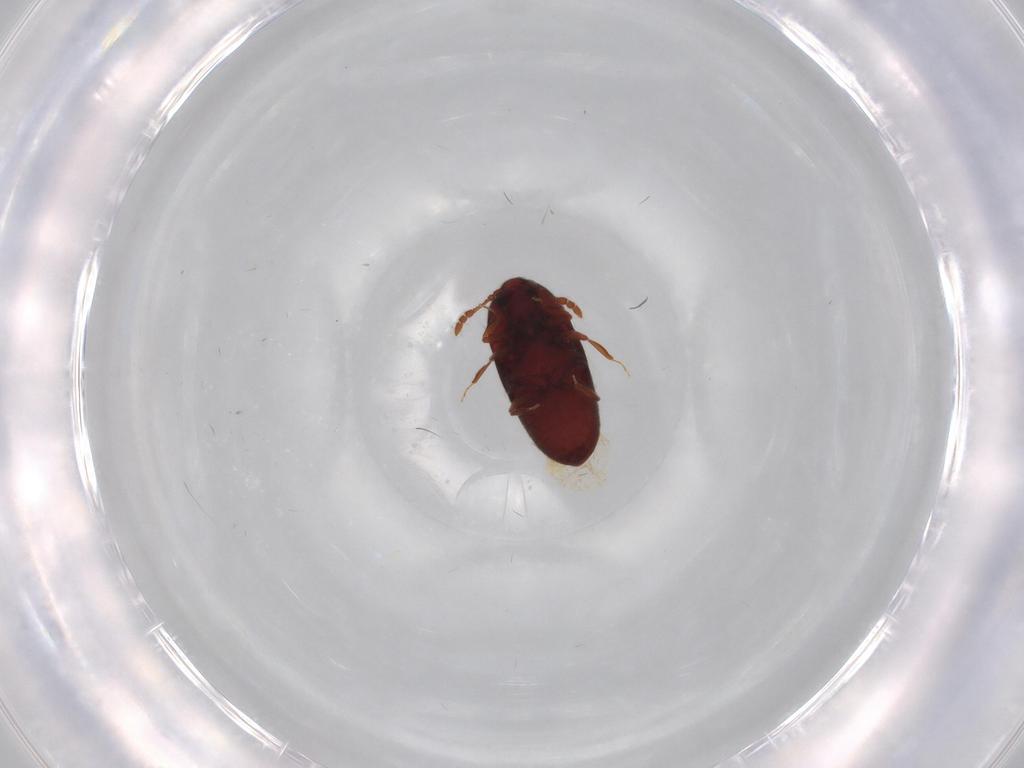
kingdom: Animalia
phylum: Arthropoda
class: Insecta
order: Coleoptera
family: Throscidae
